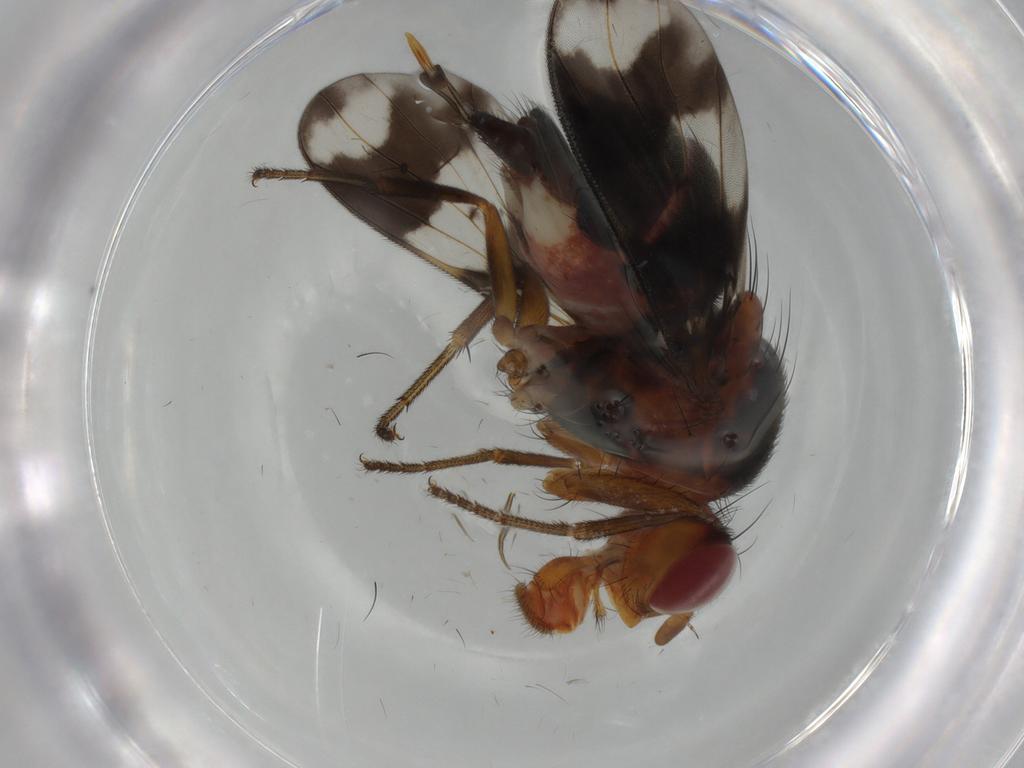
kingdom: Animalia
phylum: Arthropoda
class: Insecta
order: Diptera
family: Richardiidae
